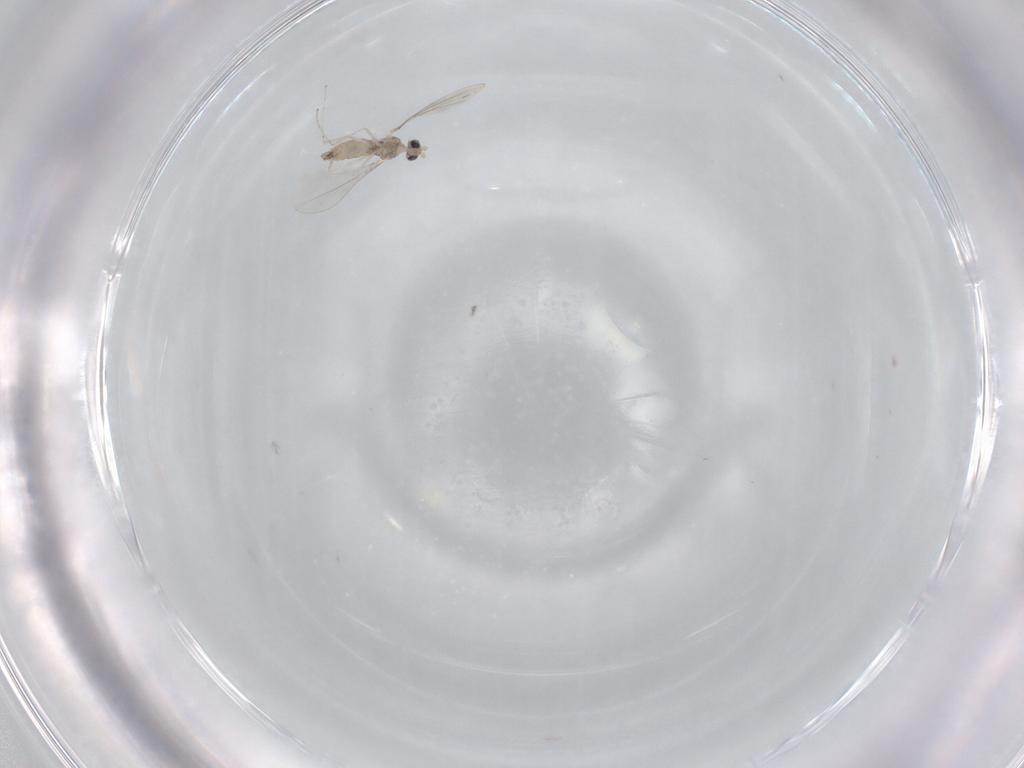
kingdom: Animalia
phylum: Arthropoda
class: Insecta
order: Diptera
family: Cecidomyiidae
